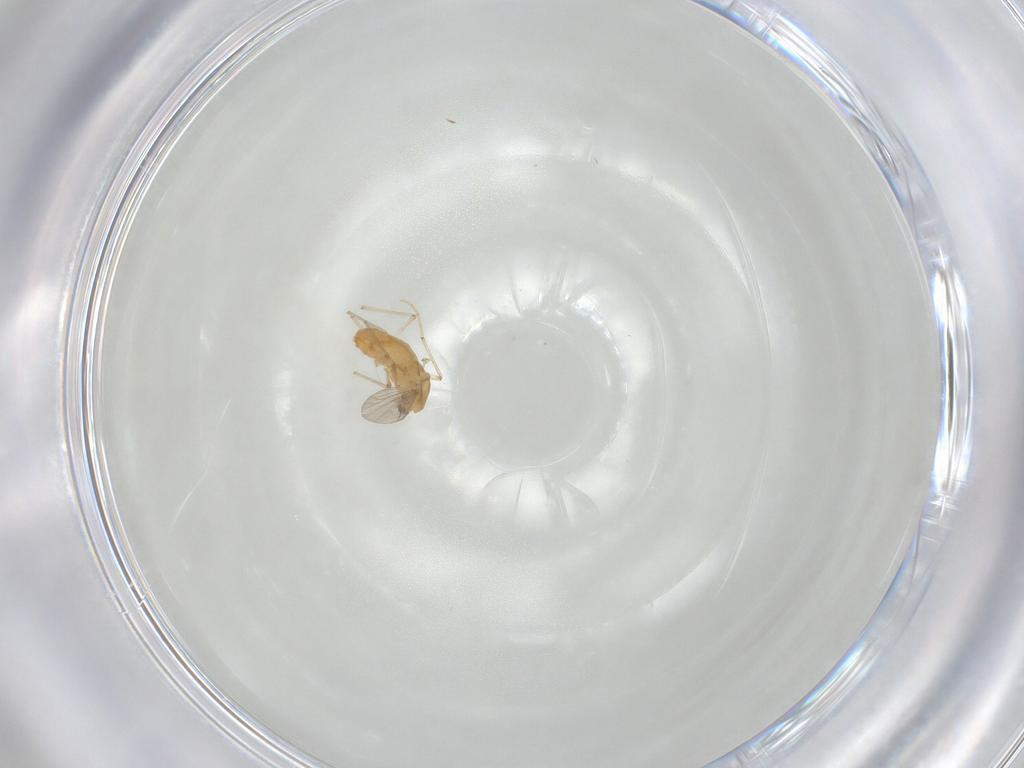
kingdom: Animalia
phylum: Arthropoda
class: Insecta
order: Diptera
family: Chironomidae
